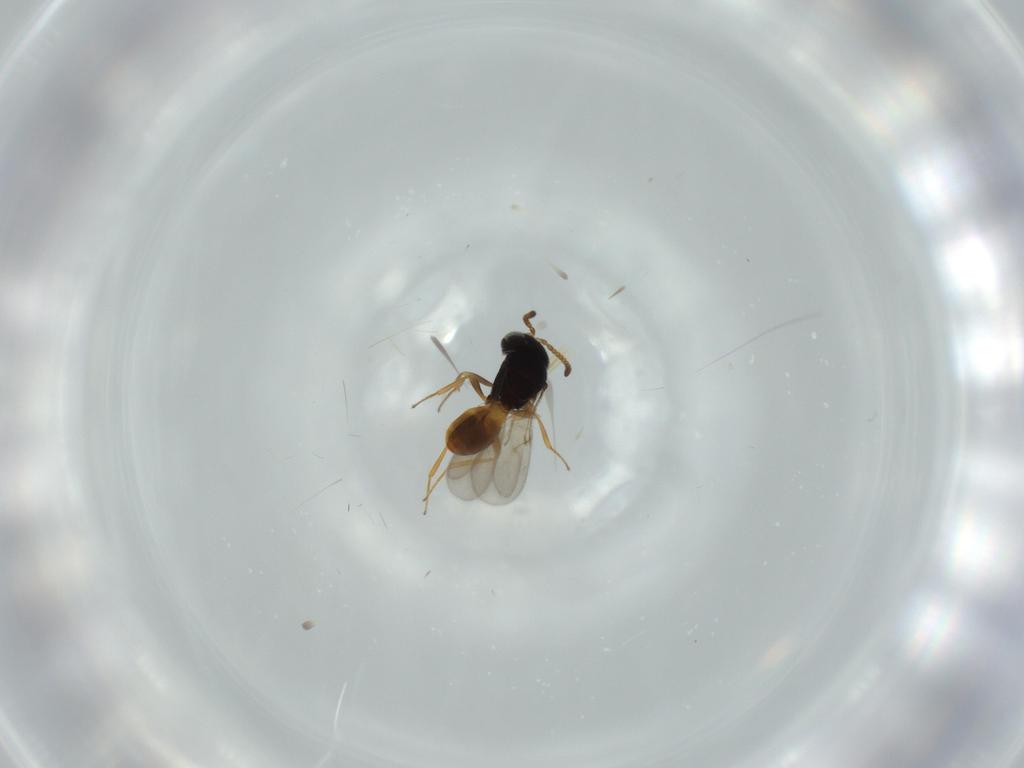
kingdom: Animalia
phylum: Arthropoda
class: Insecta
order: Hymenoptera
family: Scelionidae
